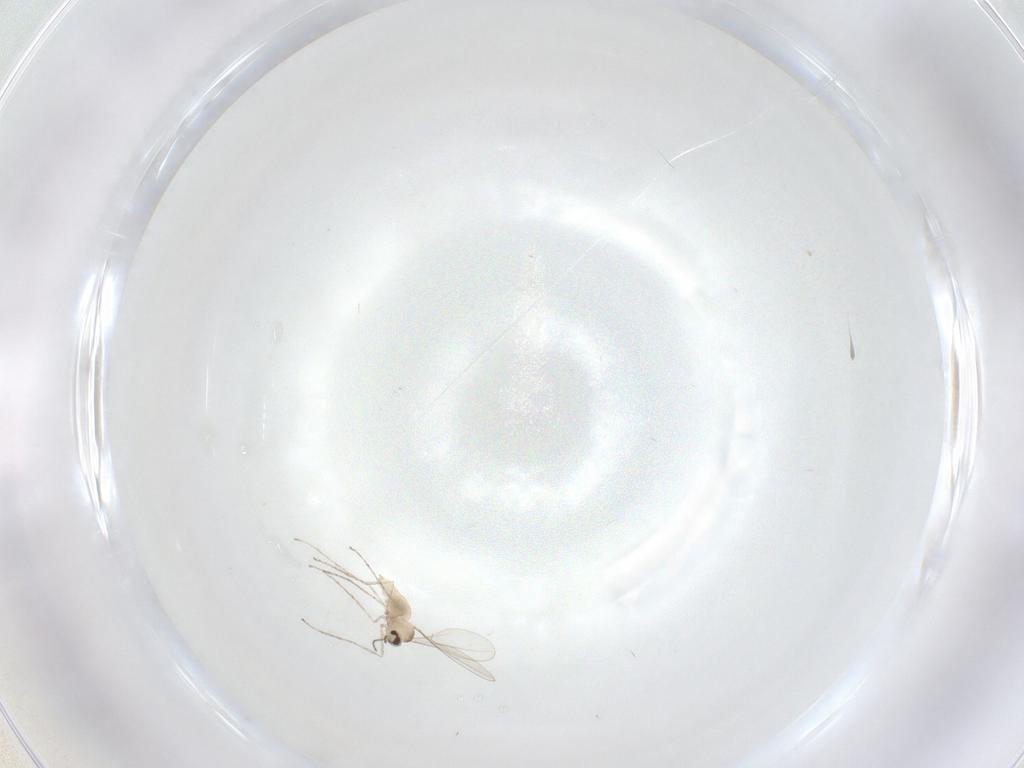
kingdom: Animalia
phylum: Arthropoda
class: Insecta
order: Diptera
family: Psychodidae
